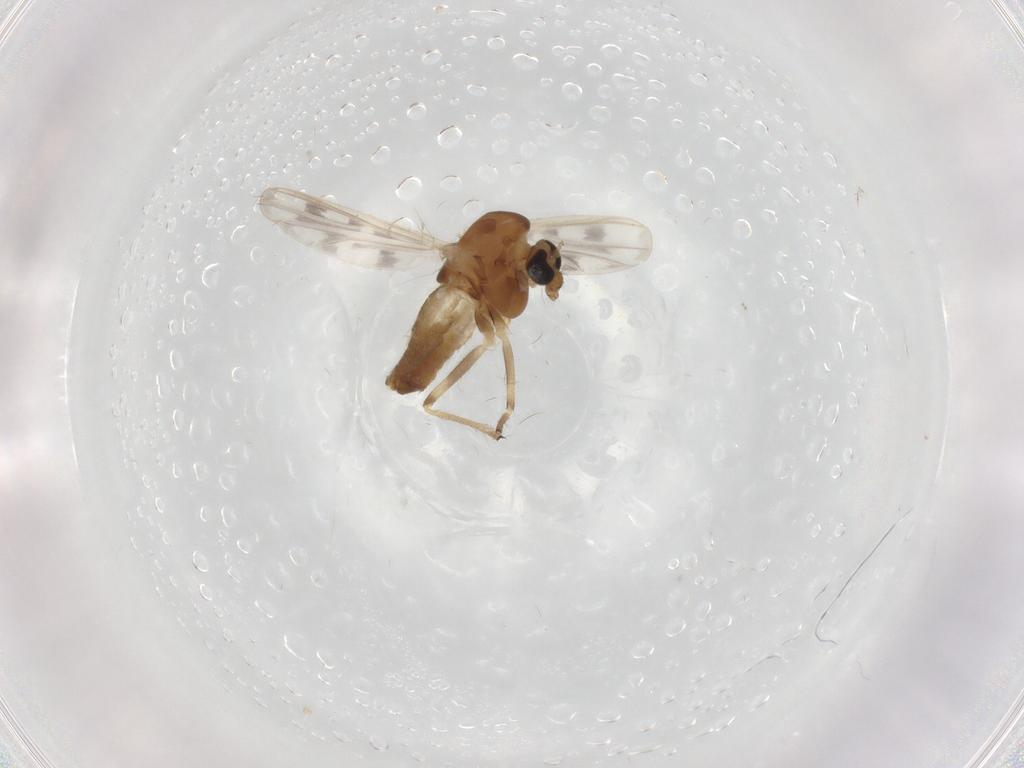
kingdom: Animalia
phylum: Arthropoda
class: Insecta
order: Diptera
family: Chironomidae
